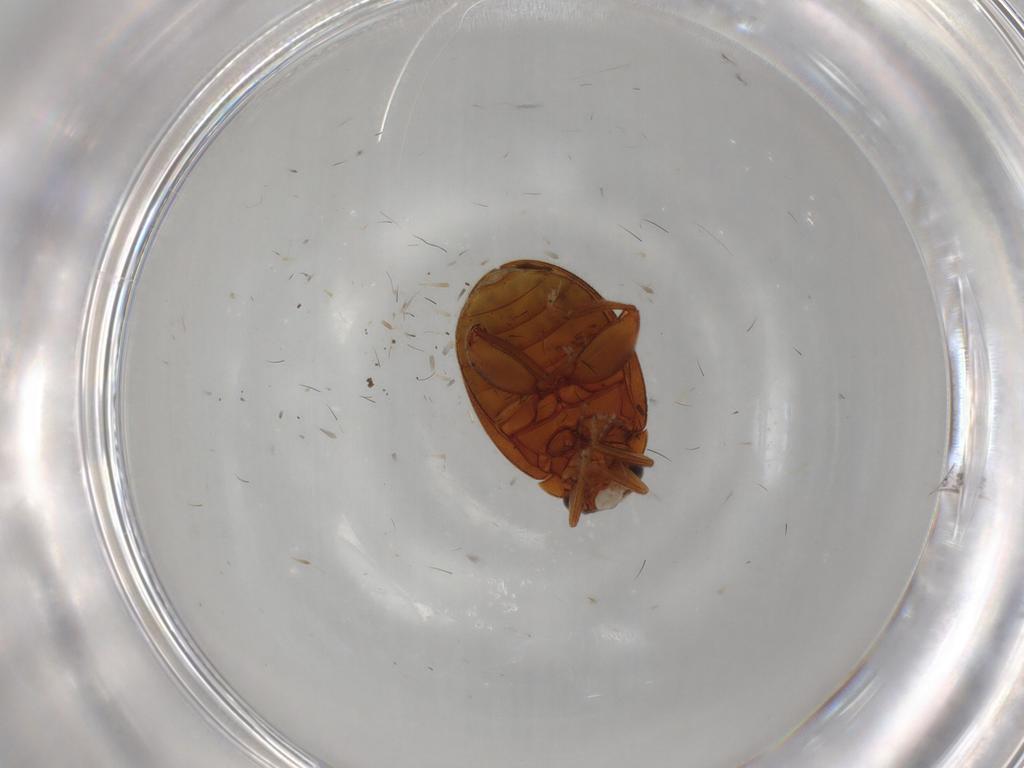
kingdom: Animalia
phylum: Arthropoda
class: Insecta
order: Coleoptera
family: Scirtidae
